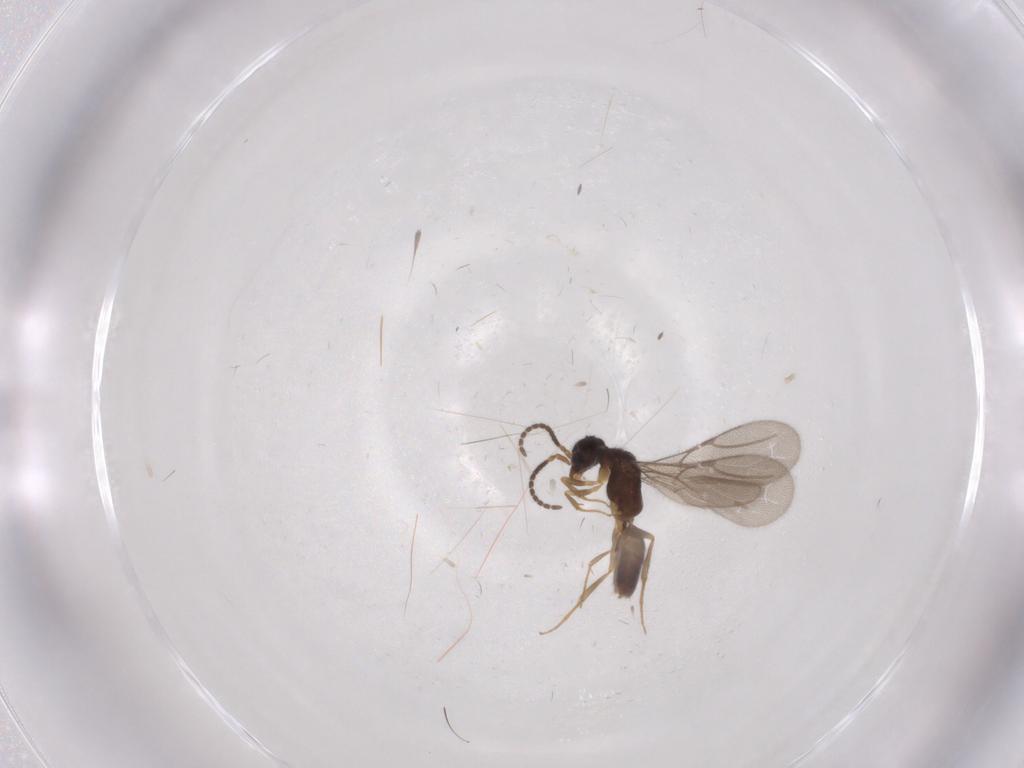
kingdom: Animalia
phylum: Arthropoda
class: Insecta
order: Hymenoptera
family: Bethylidae
